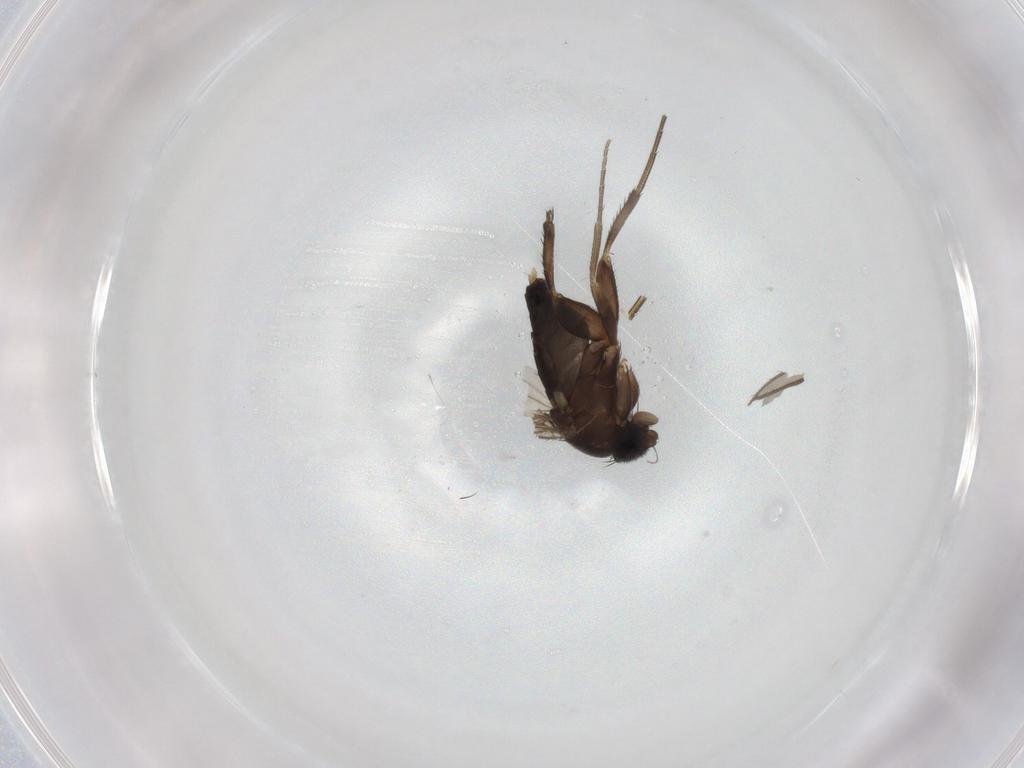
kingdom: Animalia
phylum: Arthropoda
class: Insecta
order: Diptera
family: Phoridae
